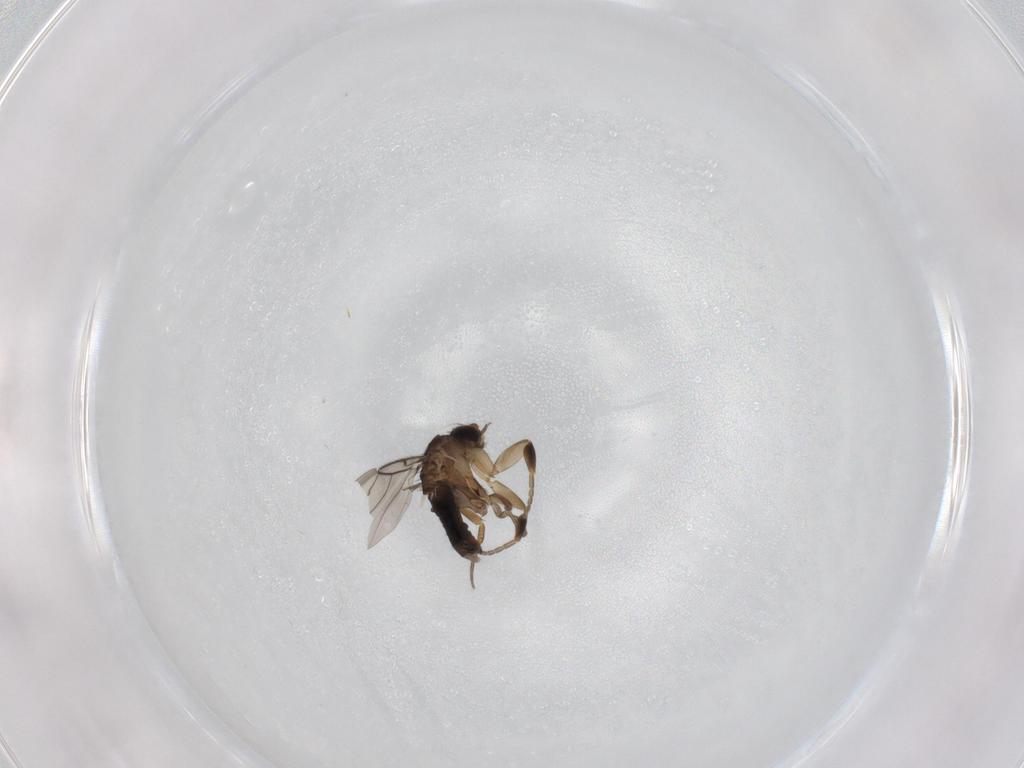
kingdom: Animalia
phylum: Arthropoda
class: Insecta
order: Diptera
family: Phoridae
